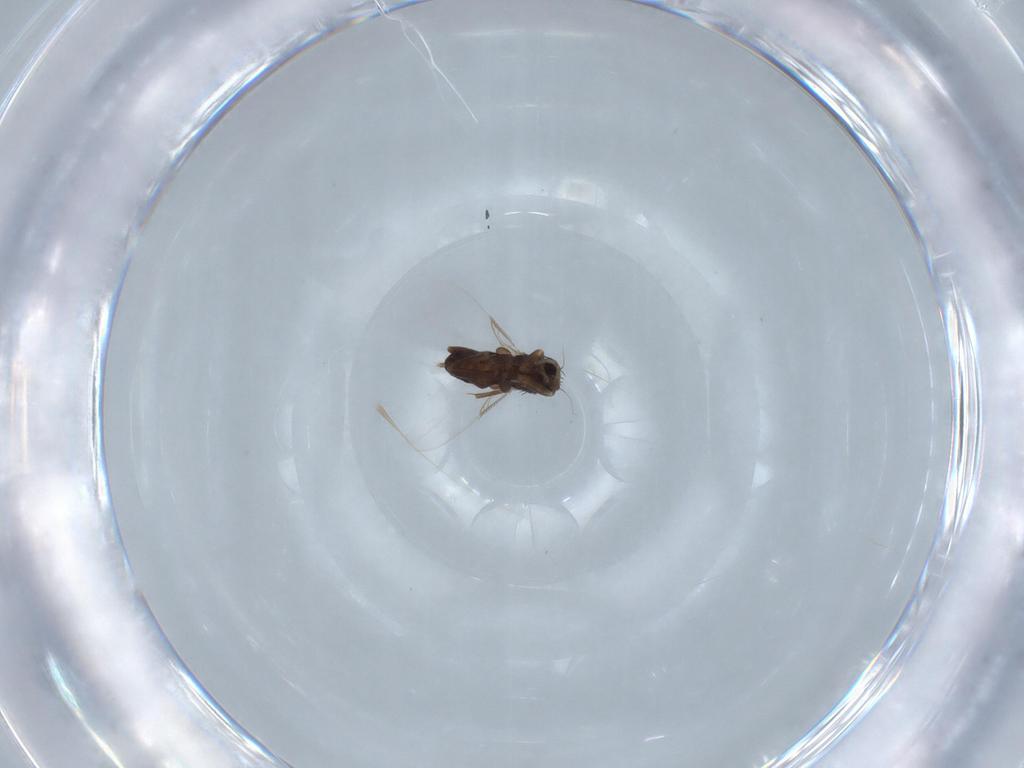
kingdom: Animalia
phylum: Arthropoda
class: Insecta
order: Diptera
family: Phoridae
